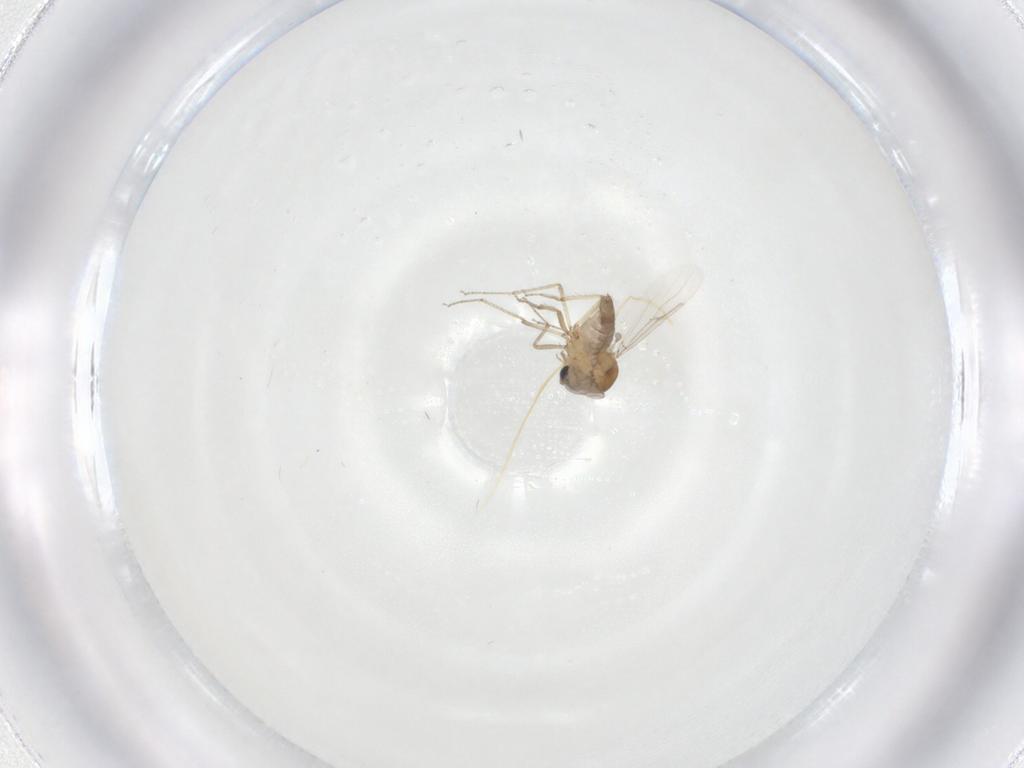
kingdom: Animalia
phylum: Arthropoda
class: Insecta
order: Diptera
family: Ceratopogonidae
